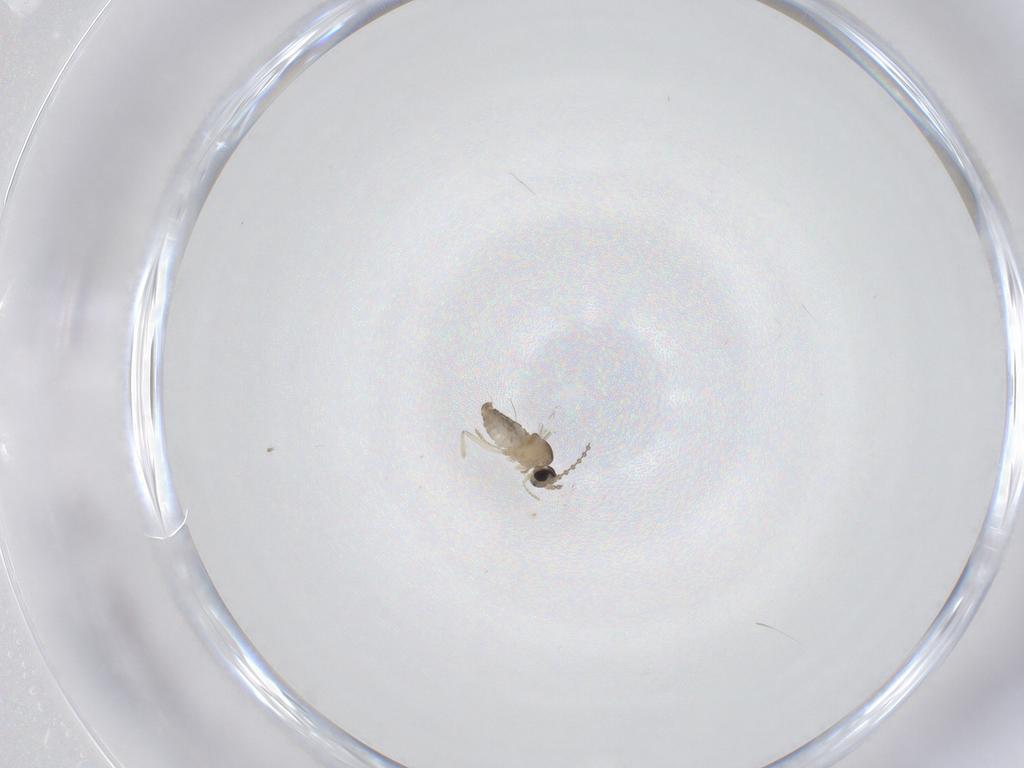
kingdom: Animalia
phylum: Arthropoda
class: Insecta
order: Diptera
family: Cecidomyiidae
